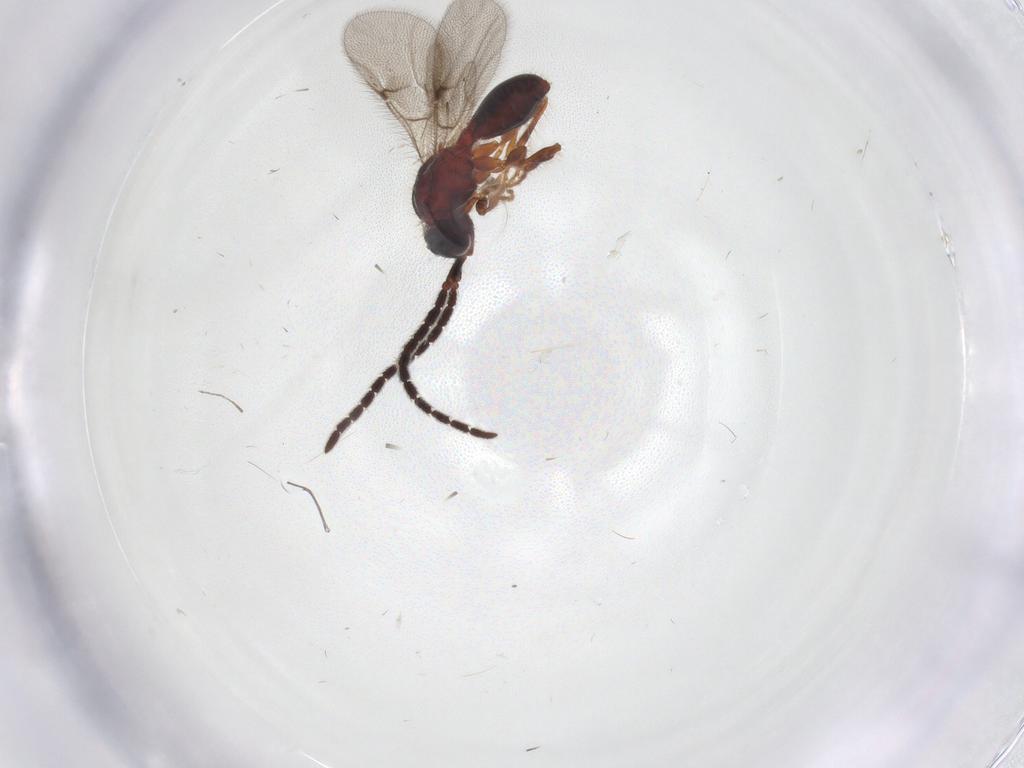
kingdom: Animalia
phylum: Arthropoda
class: Insecta
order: Hymenoptera
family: Diapriidae
